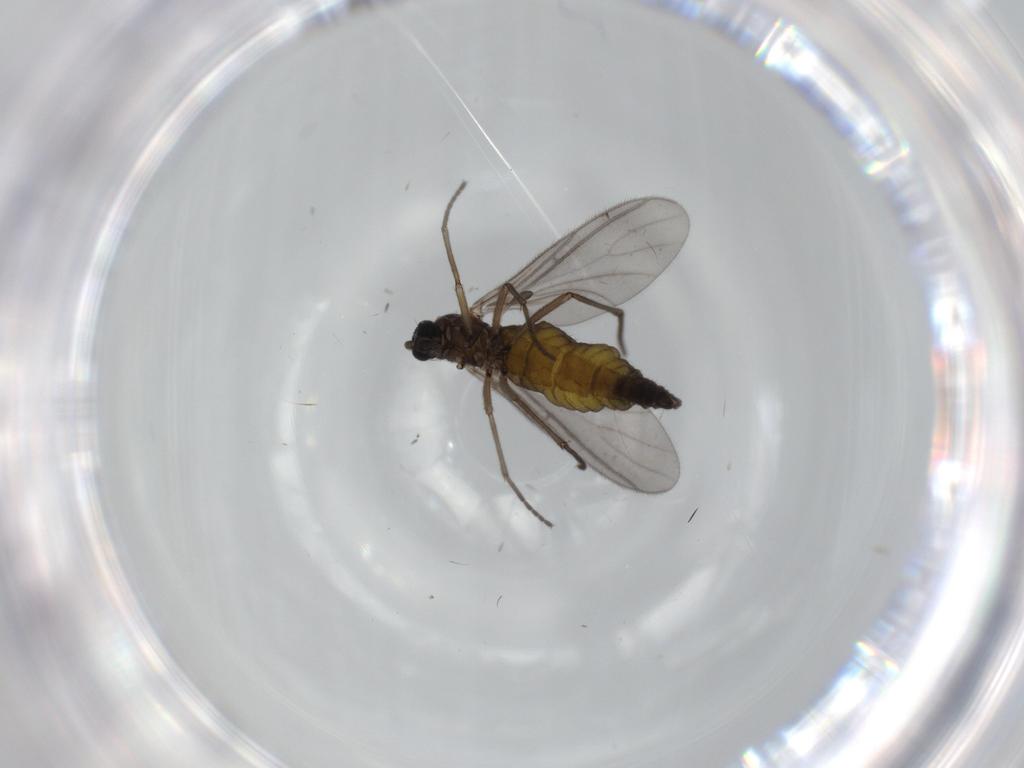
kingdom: Animalia
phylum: Arthropoda
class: Insecta
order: Diptera
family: Sciaridae
